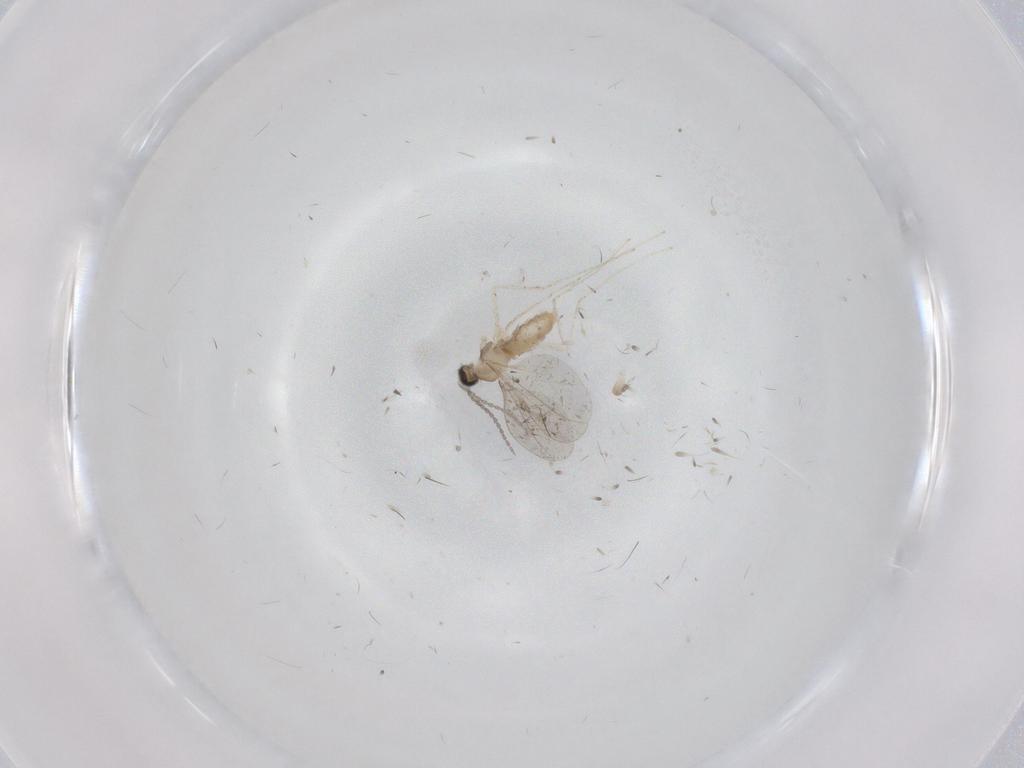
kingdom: Animalia
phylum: Arthropoda
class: Insecta
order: Diptera
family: Cecidomyiidae
